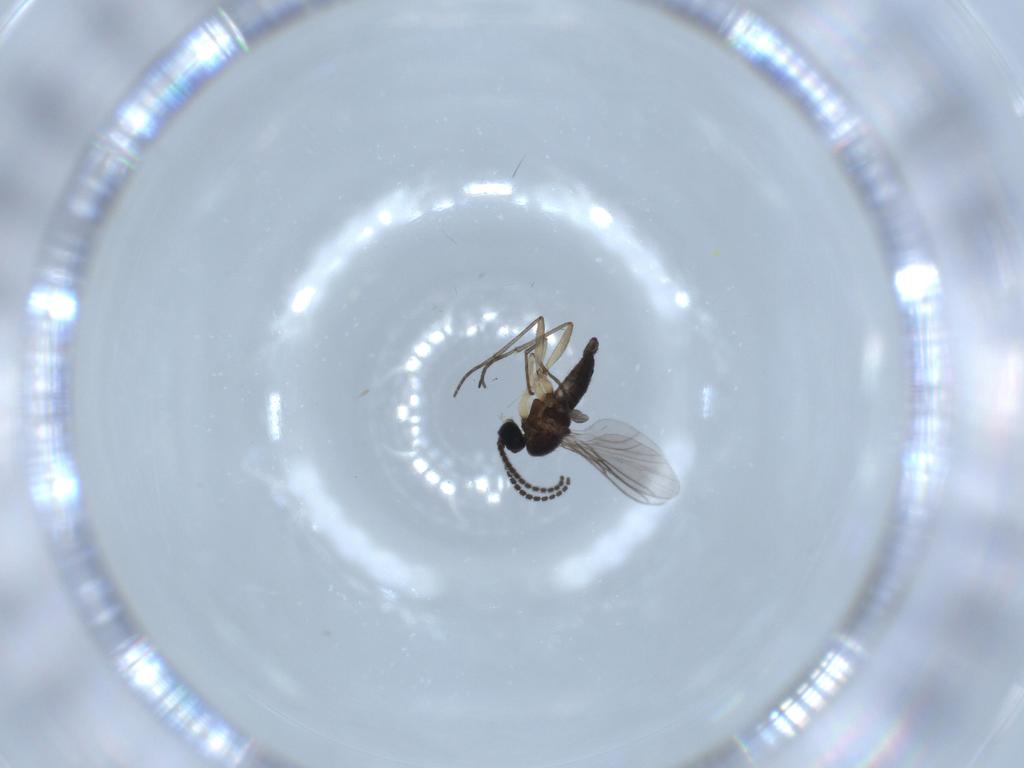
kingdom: Animalia
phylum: Arthropoda
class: Insecta
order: Diptera
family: Sciaridae
